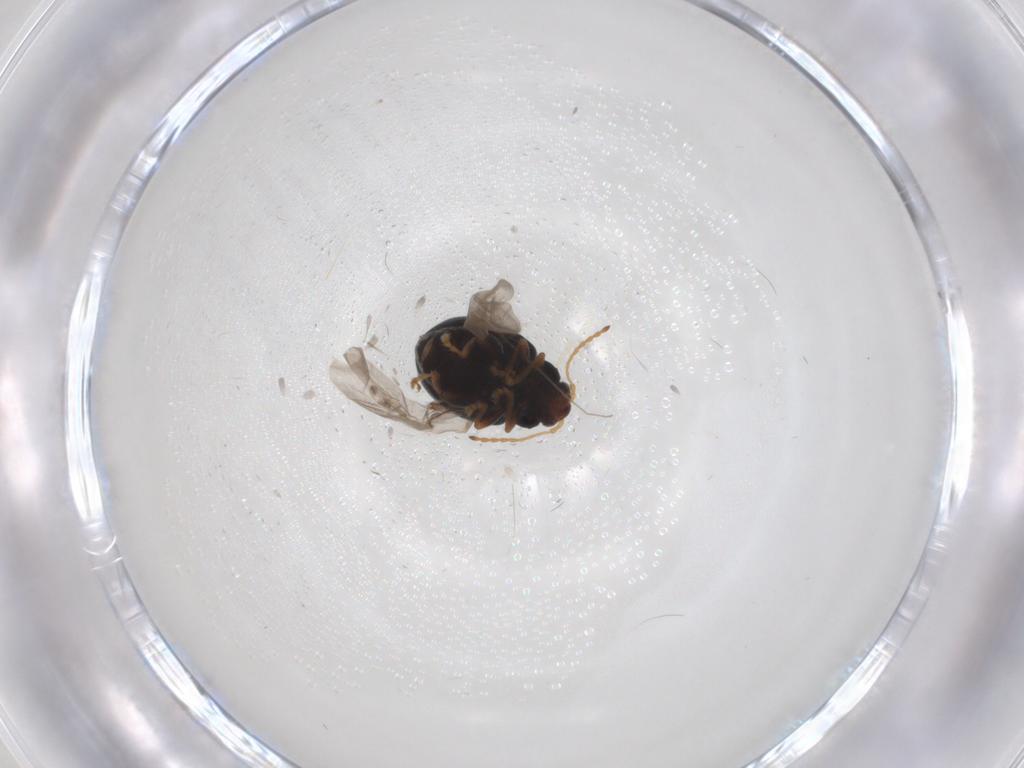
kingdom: Animalia
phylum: Arthropoda
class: Insecta
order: Coleoptera
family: Chrysomelidae
